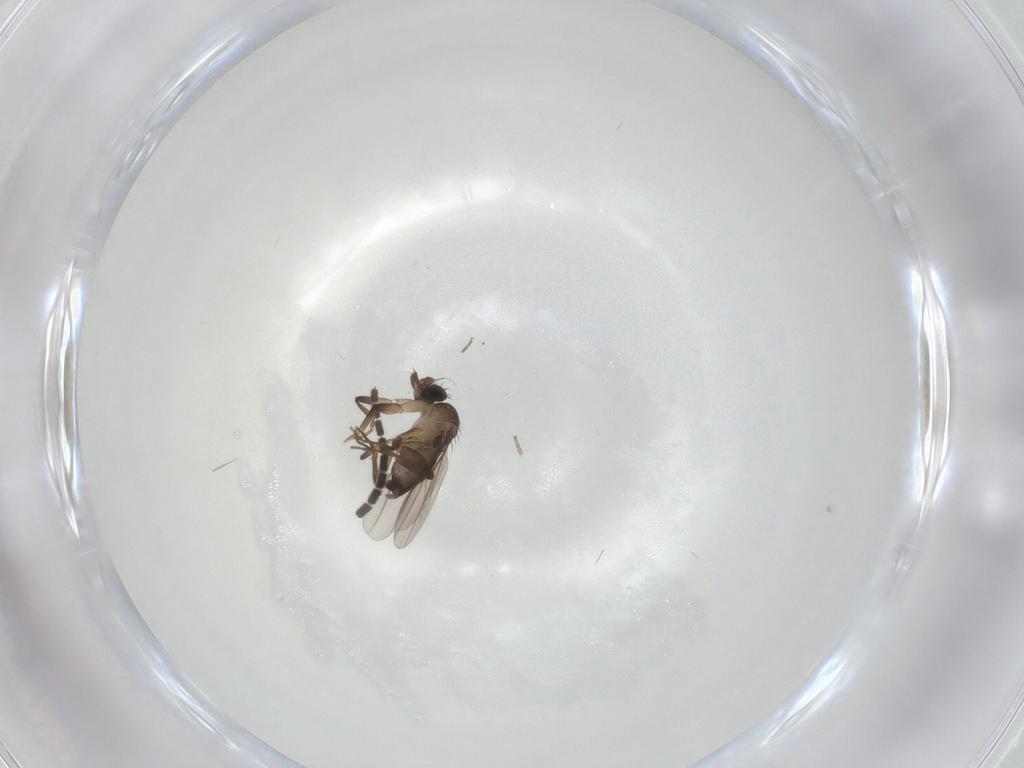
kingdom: Animalia
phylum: Arthropoda
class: Insecta
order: Diptera
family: Phoridae
